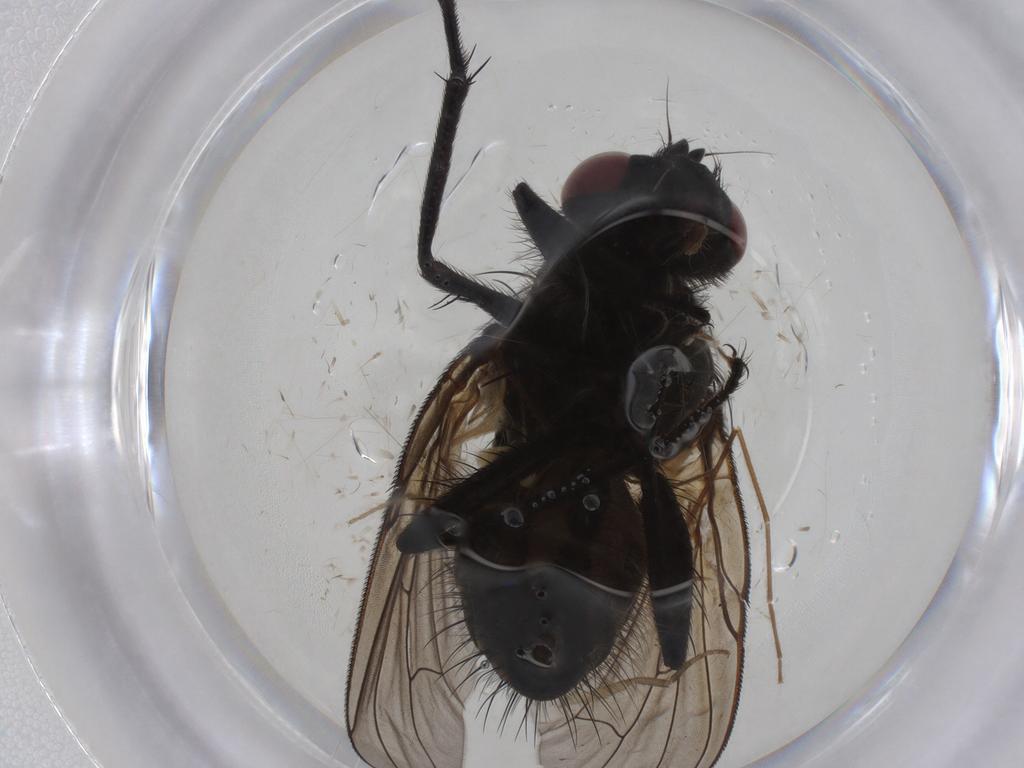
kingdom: Animalia
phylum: Arthropoda
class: Insecta
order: Diptera
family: Muscidae
